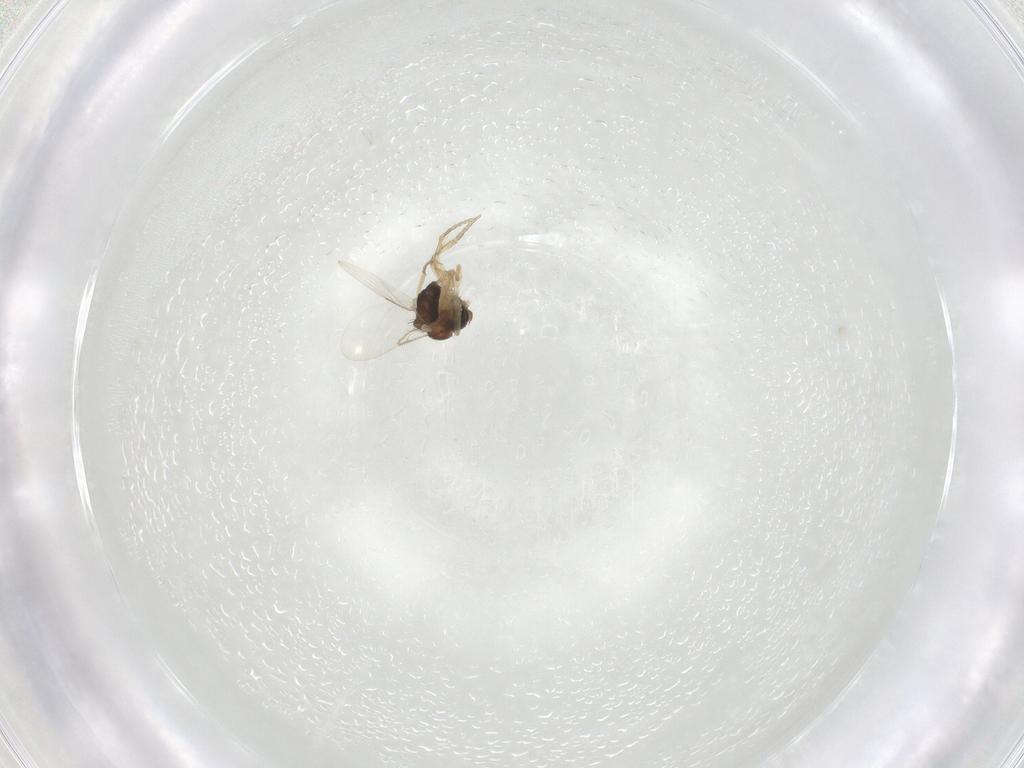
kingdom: Animalia
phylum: Arthropoda
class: Insecta
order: Diptera
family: Phoridae
